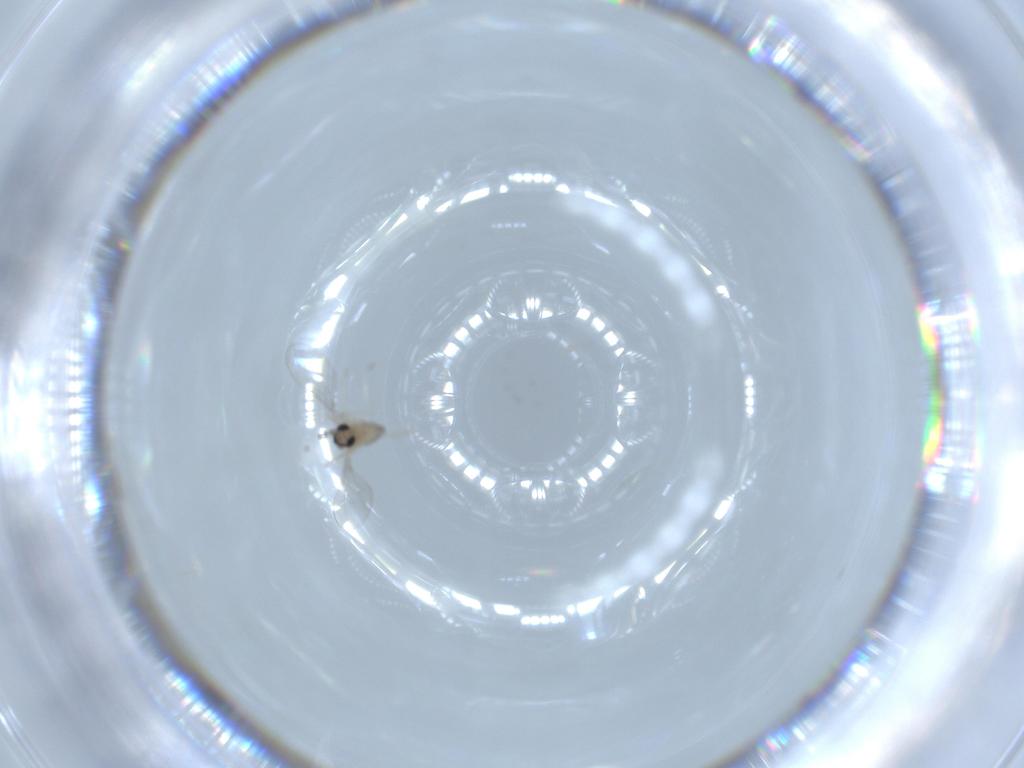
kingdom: Animalia
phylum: Arthropoda
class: Insecta
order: Diptera
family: Cecidomyiidae
